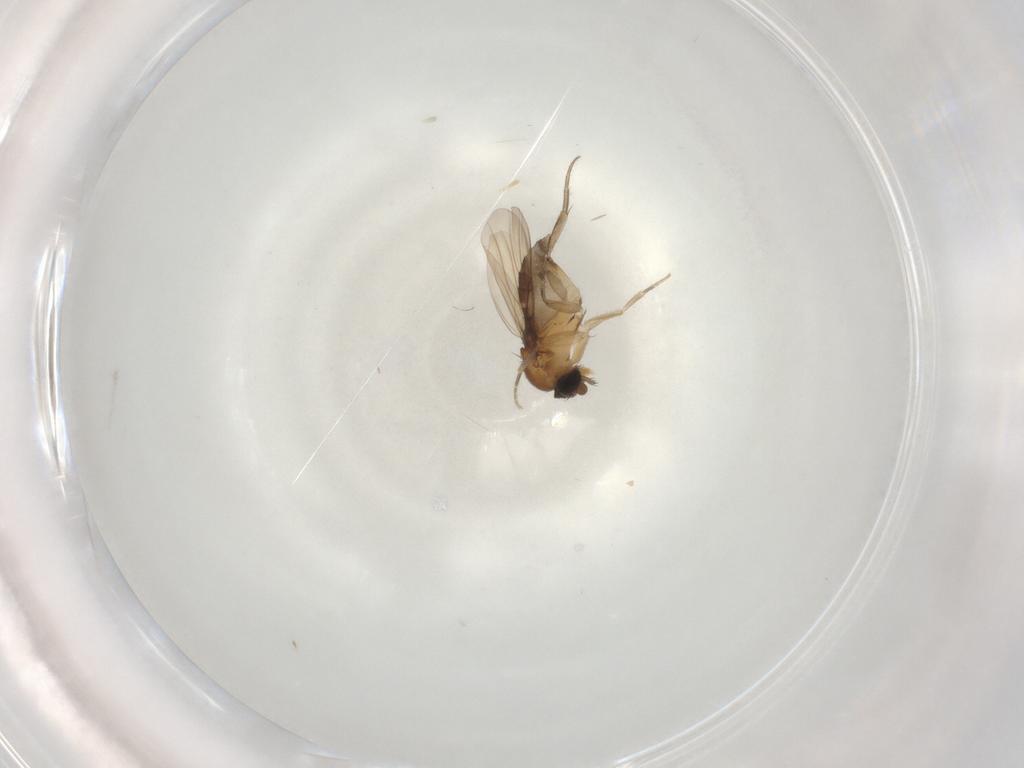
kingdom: Animalia
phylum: Arthropoda
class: Insecta
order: Diptera
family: Phoridae
